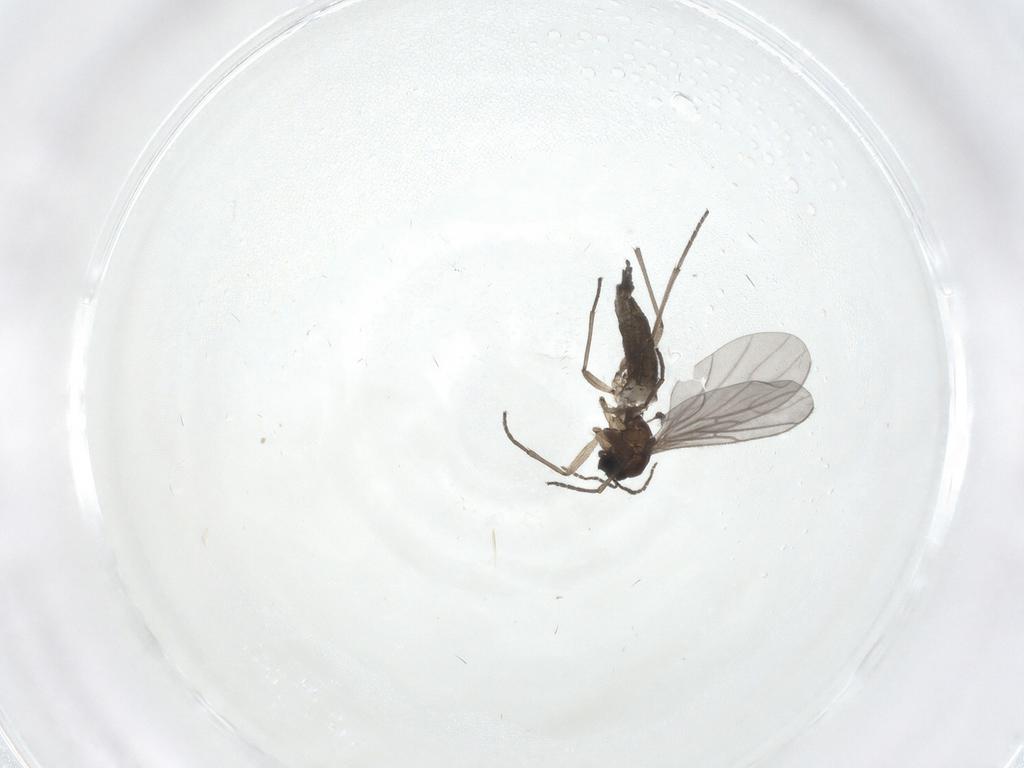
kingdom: Animalia
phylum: Arthropoda
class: Insecta
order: Diptera
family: Sciaridae
